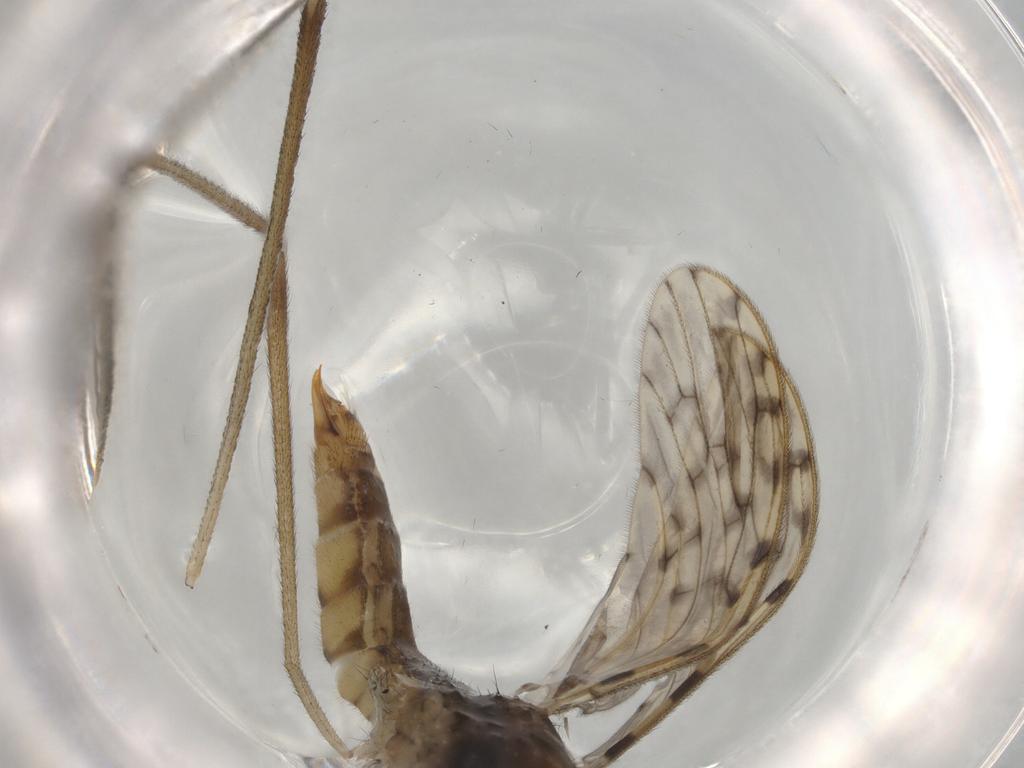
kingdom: Animalia
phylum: Arthropoda
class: Insecta
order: Diptera
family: Limoniidae
